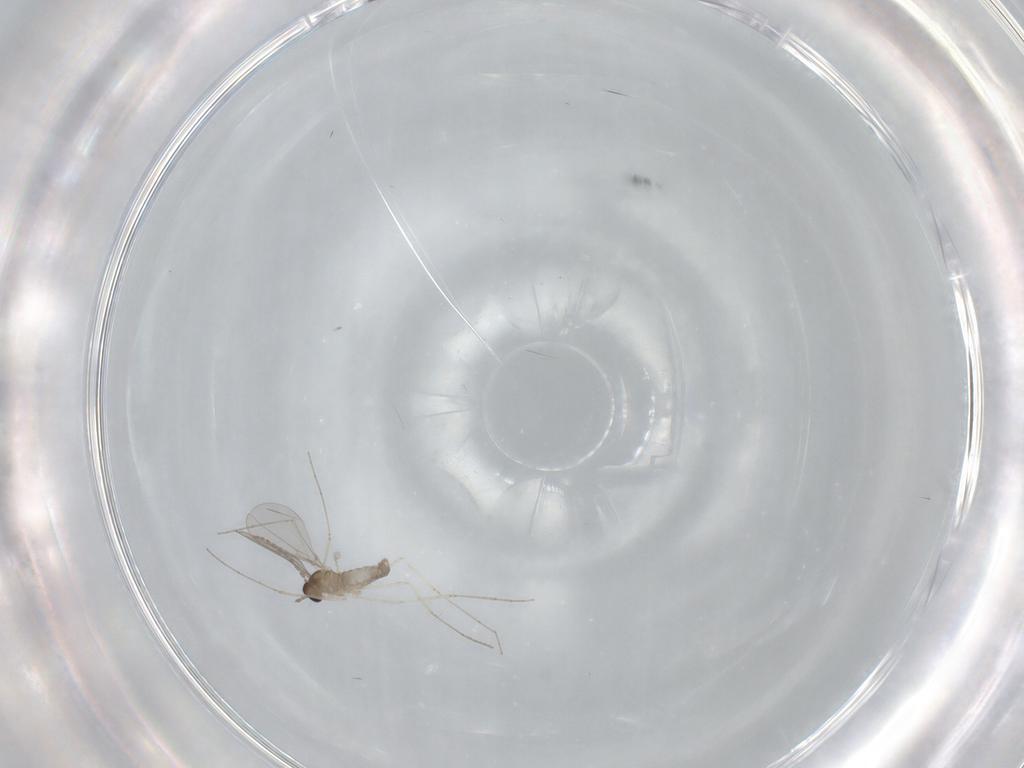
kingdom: Animalia
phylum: Arthropoda
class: Insecta
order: Diptera
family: Cecidomyiidae
